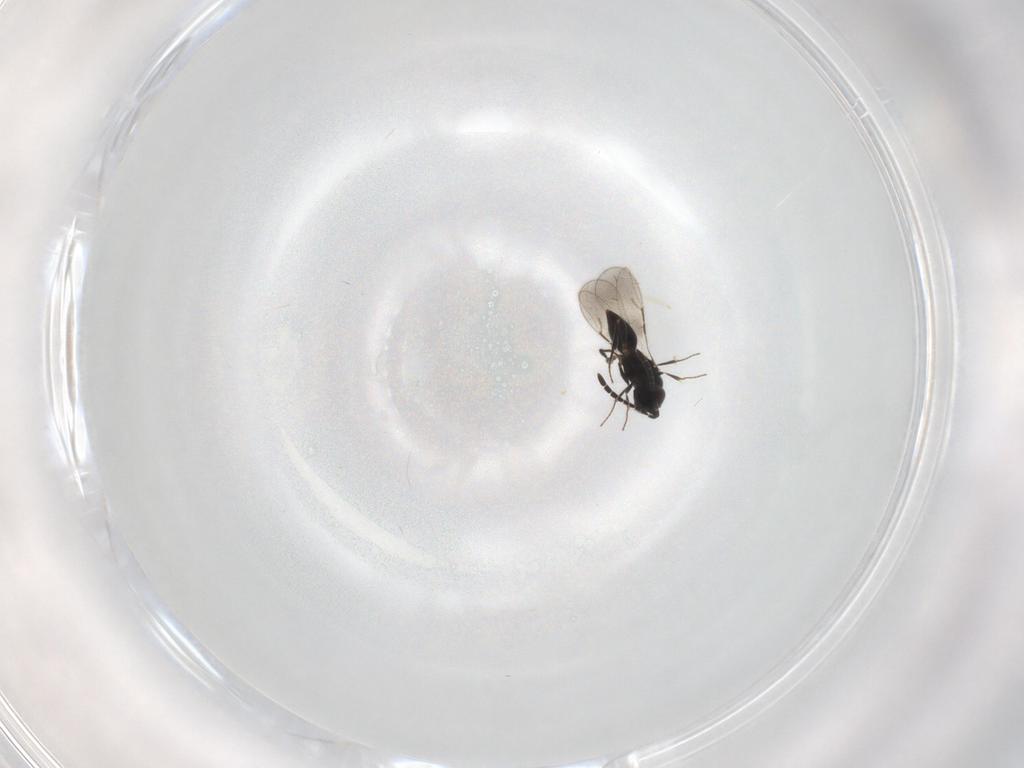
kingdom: Animalia
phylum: Arthropoda
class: Insecta
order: Hymenoptera
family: Ceraphronidae
